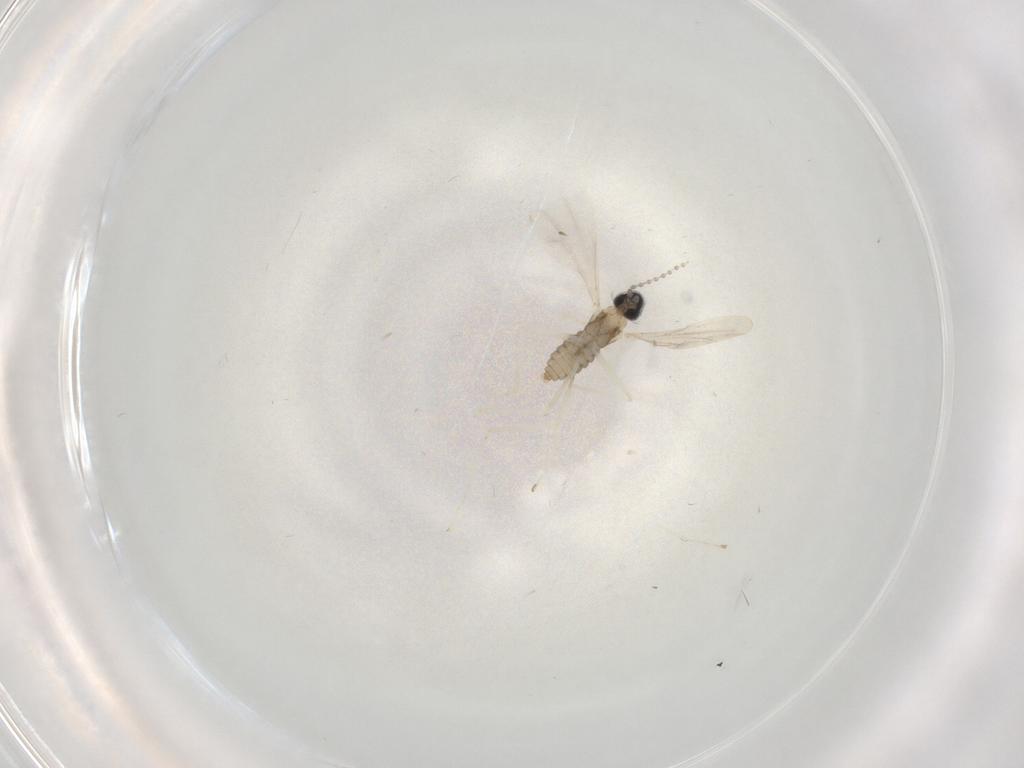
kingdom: Animalia
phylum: Arthropoda
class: Insecta
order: Diptera
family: Cecidomyiidae
